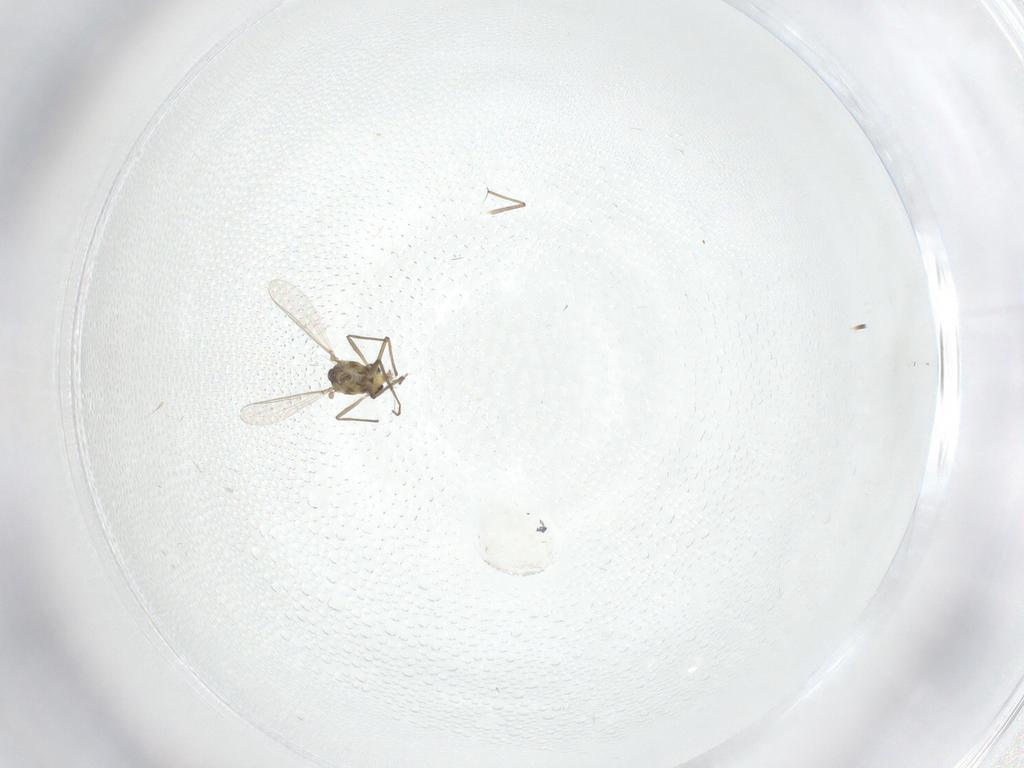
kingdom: Animalia
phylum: Arthropoda
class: Insecta
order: Diptera
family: Chironomidae
